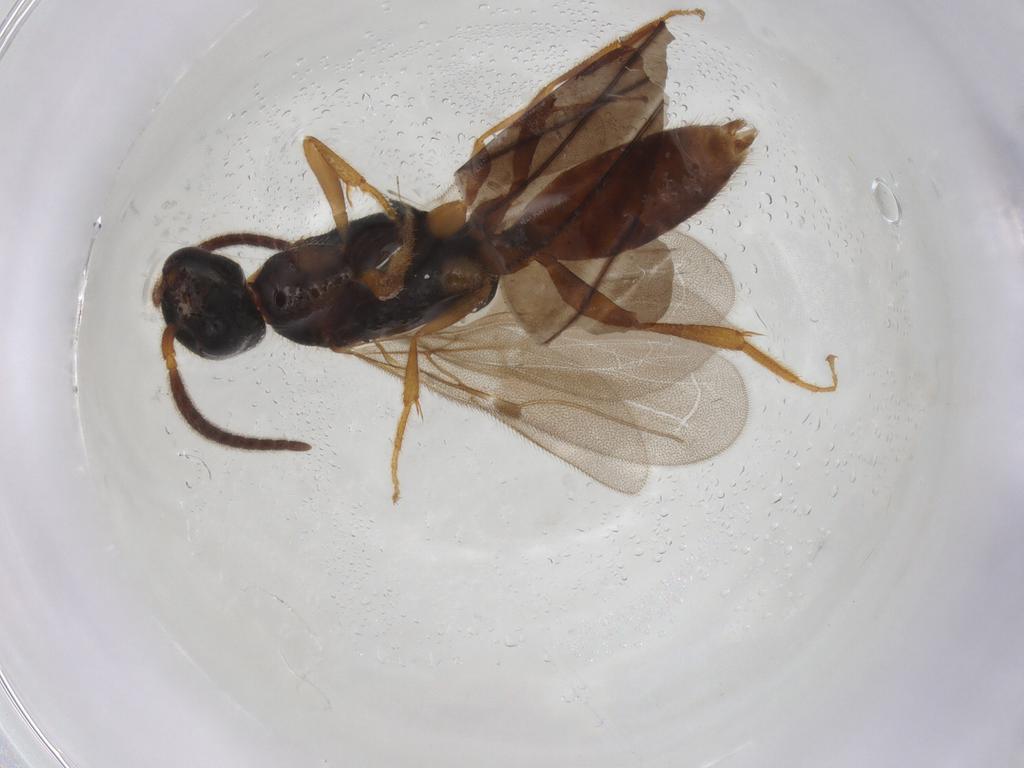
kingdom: Animalia
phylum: Arthropoda
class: Insecta
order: Hymenoptera
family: Bethylidae
